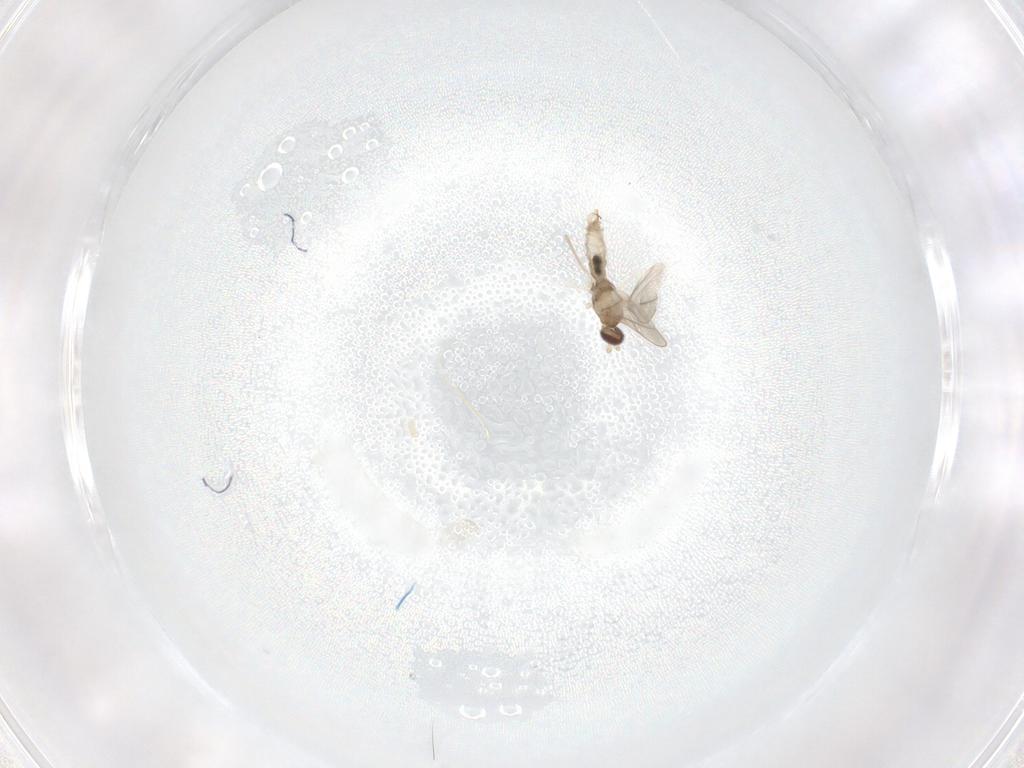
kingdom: Animalia
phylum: Arthropoda
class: Insecta
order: Diptera
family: Cecidomyiidae
